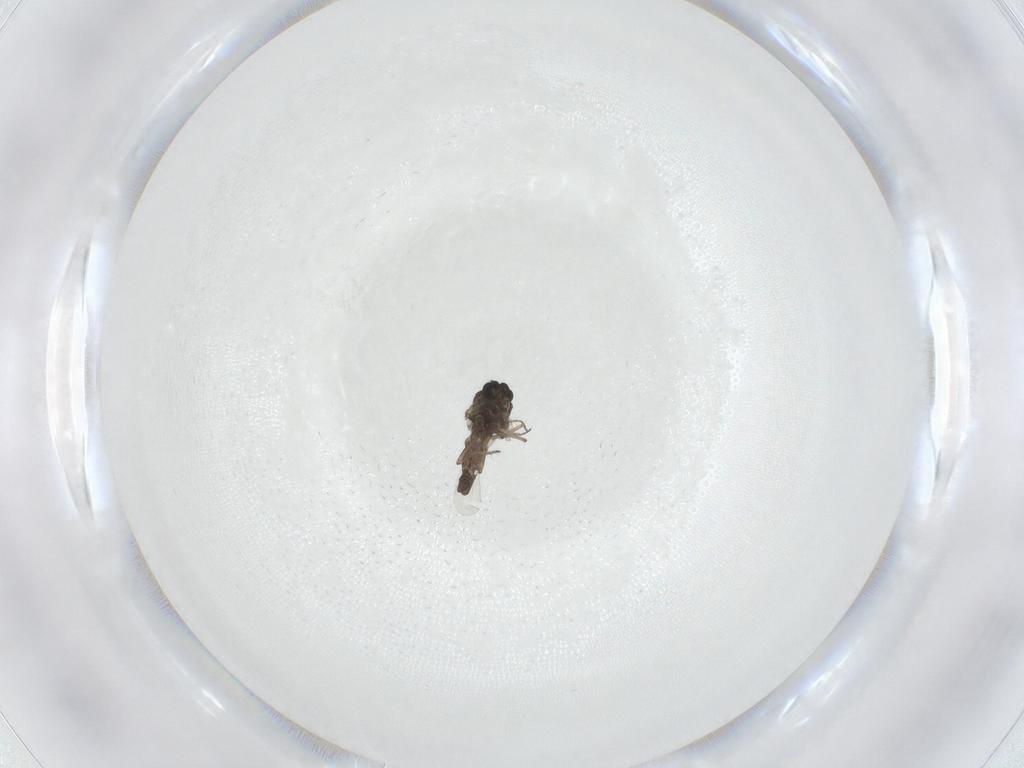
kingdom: Animalia
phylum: Arthropoda
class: Insecta
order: Diptera
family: Ceratopogonidae
